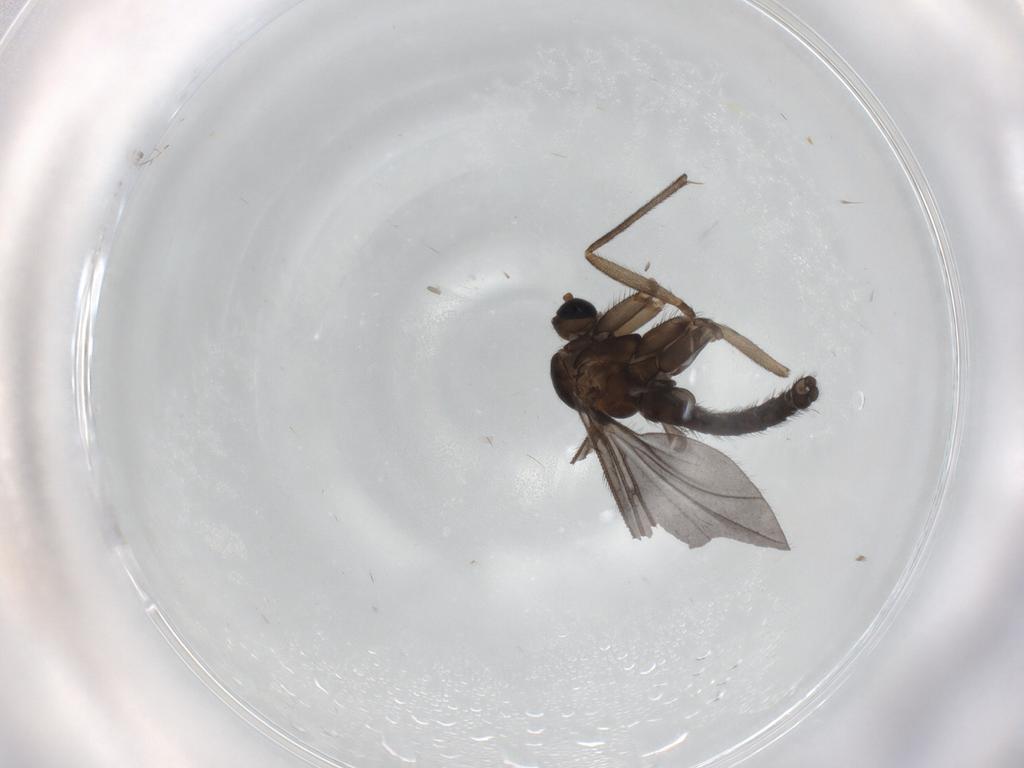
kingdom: Animalia
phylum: Arthropoda
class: Insecta
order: Diptera
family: Sciaridae
